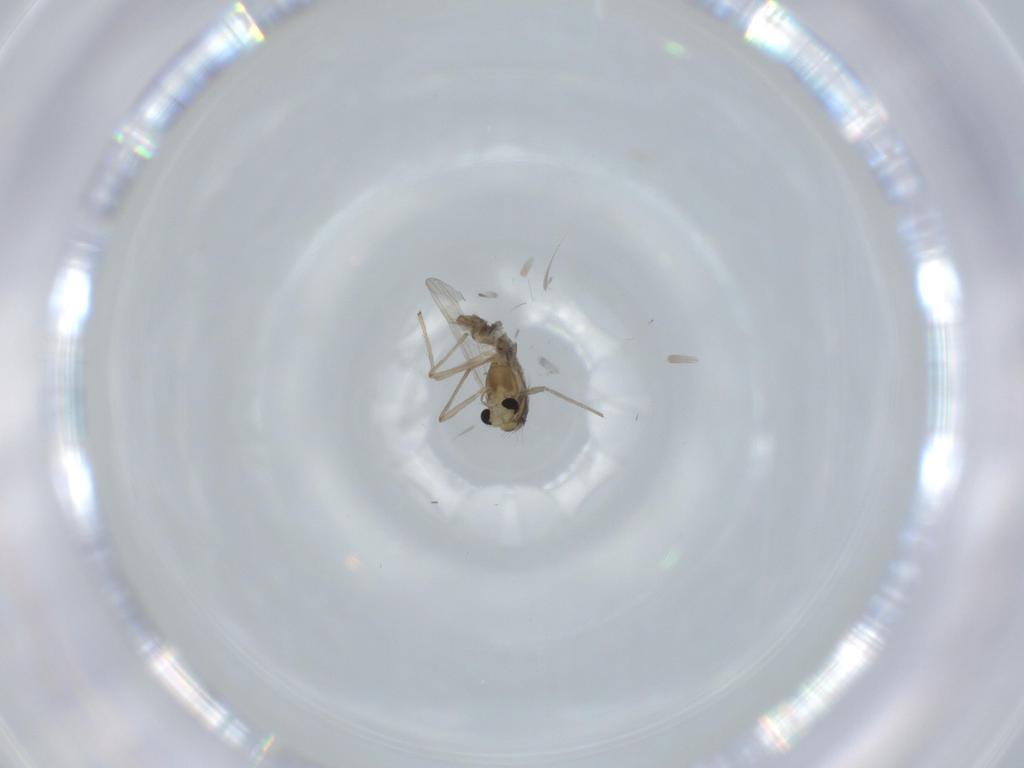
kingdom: Animalia
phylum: Arthropoda
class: Insecta
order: Diptera
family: Chironomidae
